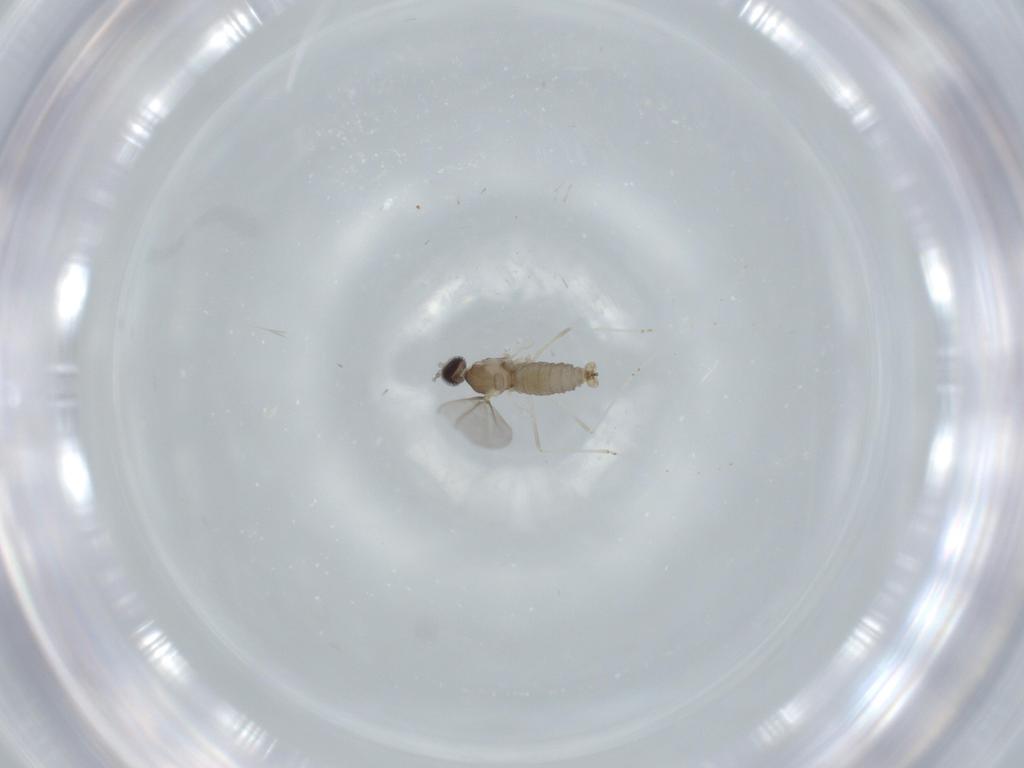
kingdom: Animalia
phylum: Arthropoda
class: Insecta
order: Diptera
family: Cecidomyiidae
